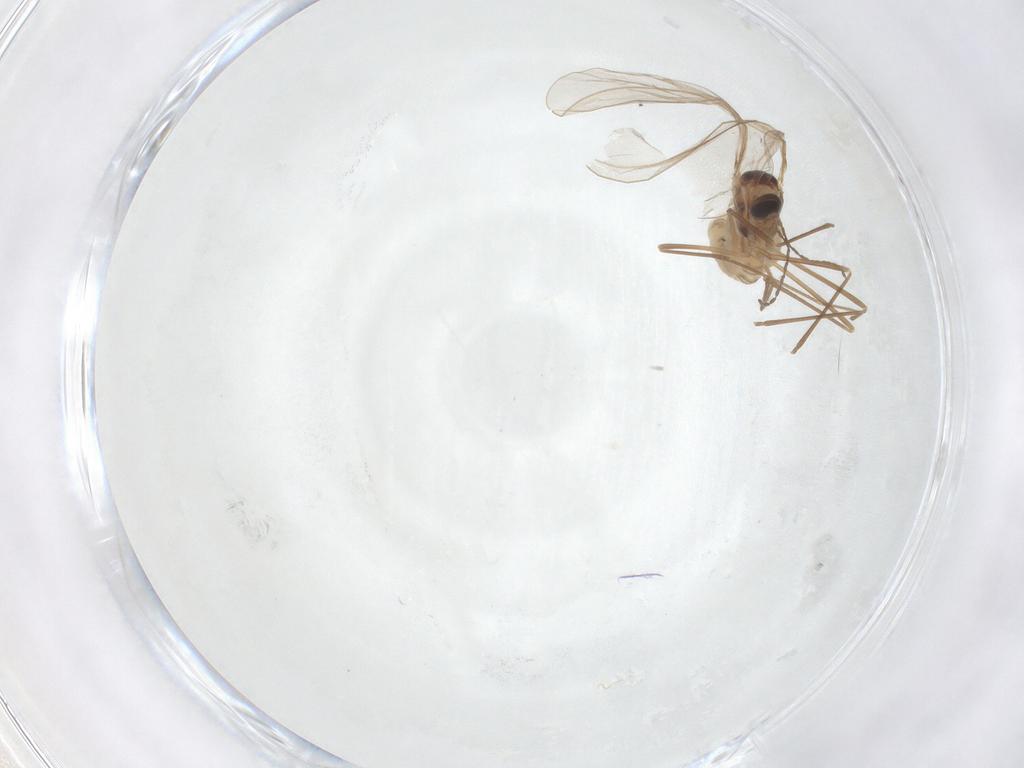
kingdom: Animalia
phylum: Arthropoda
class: Insecta
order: Diptera
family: Cecidomyiidae
